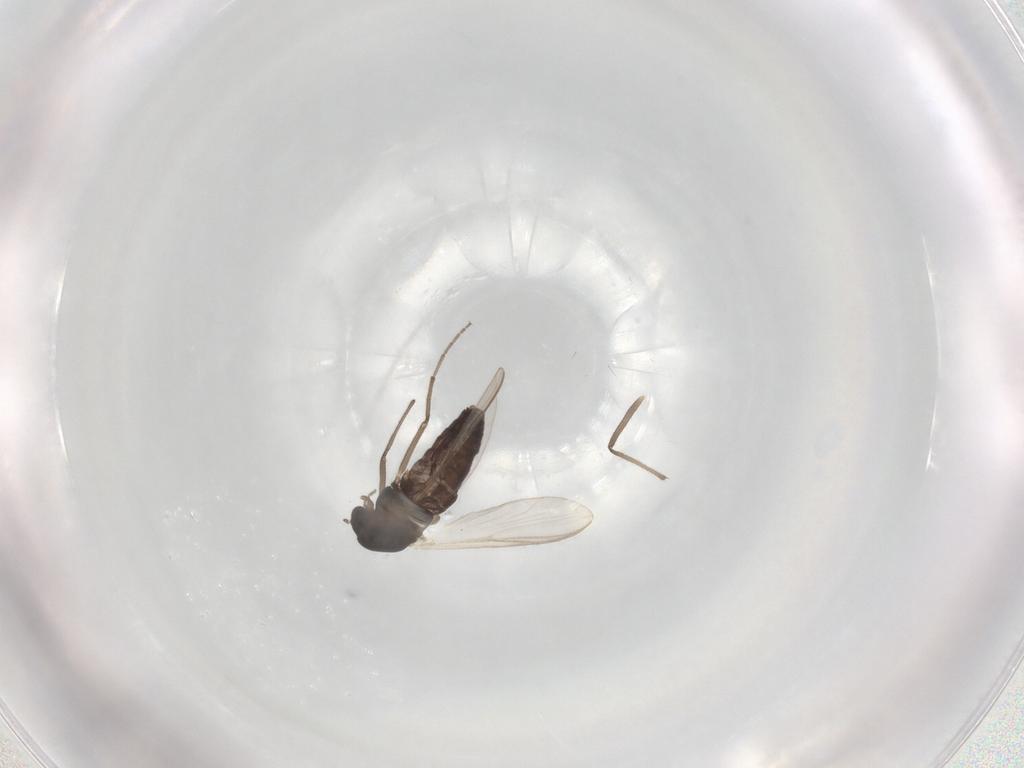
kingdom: Animalia
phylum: Arthropoda
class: Insecta
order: Diptera
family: Chironomidae
